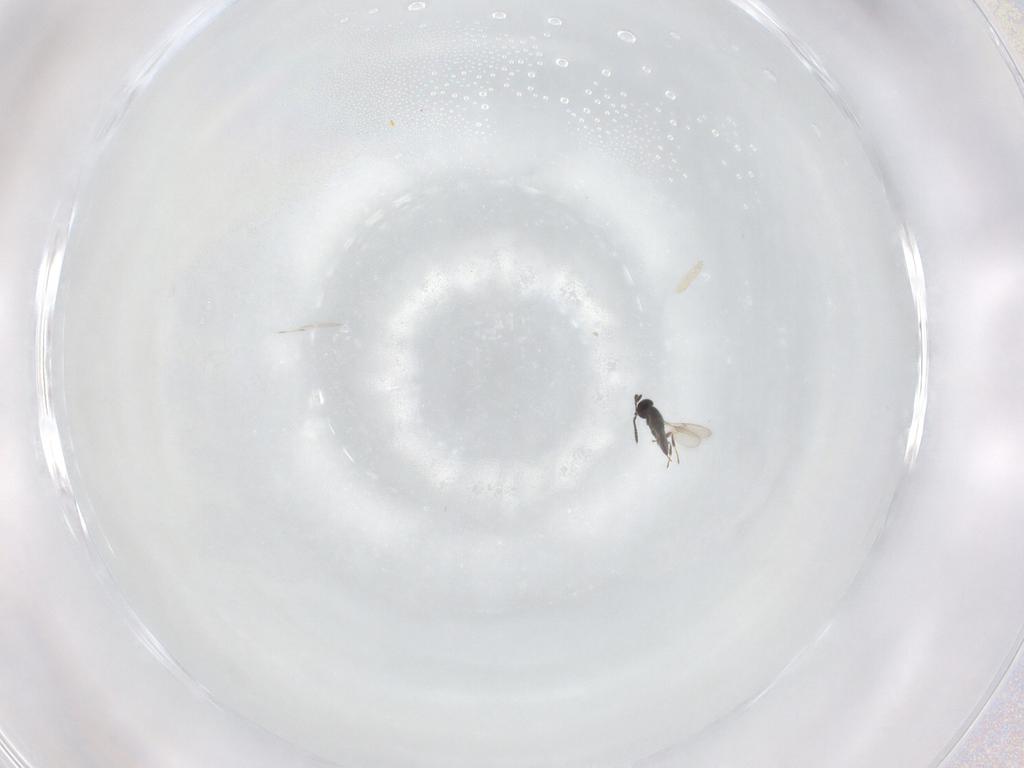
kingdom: Animalia
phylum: Arthropoda
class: Insecta
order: Hymenoptera
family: Scelionidae
